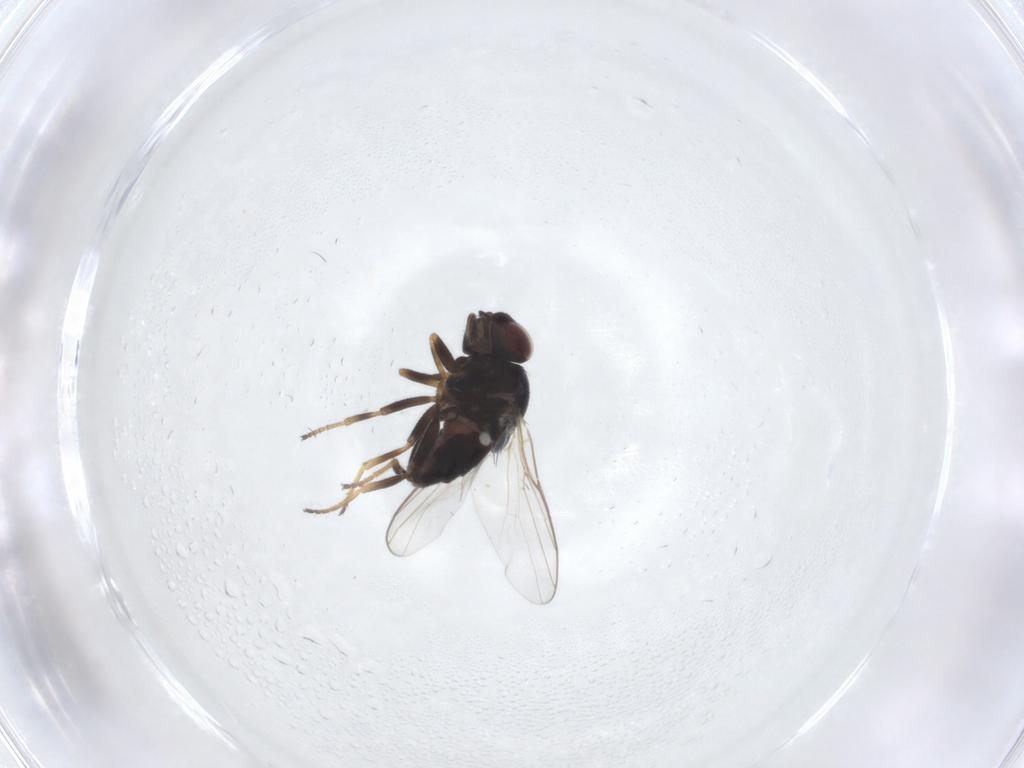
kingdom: Animalia
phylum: Arthropoda
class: Insecta
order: Diptera
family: Chloropidae
